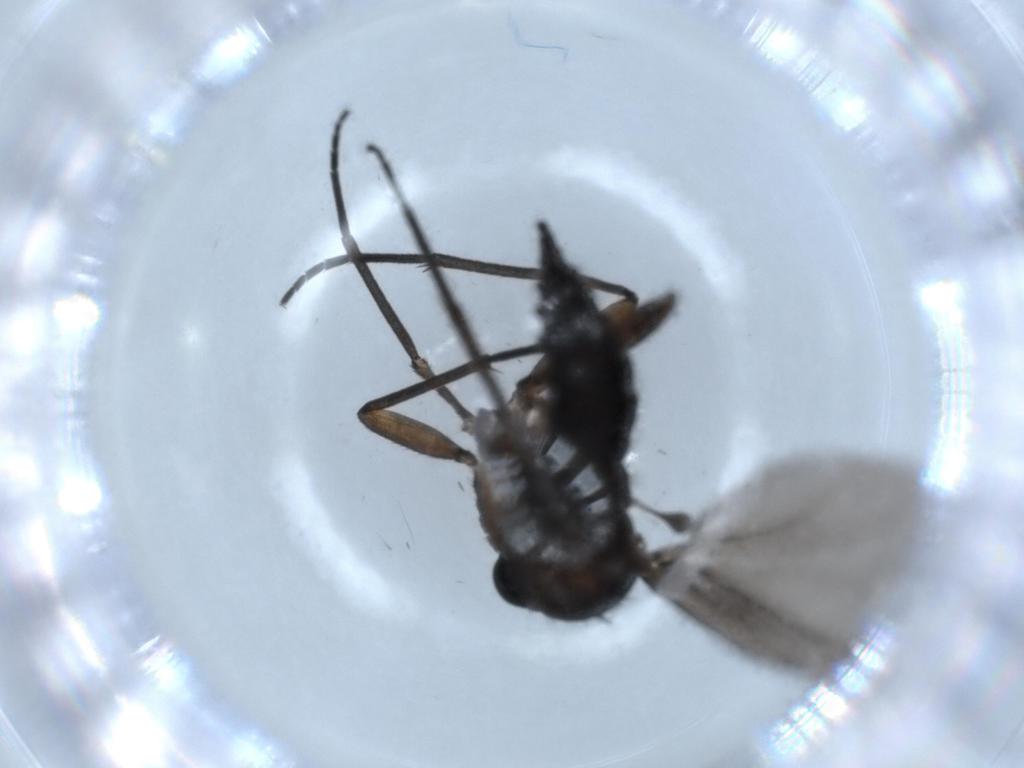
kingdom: Animalia
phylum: Arthropoda
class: Insecta
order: Diptera
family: Sciaridae
